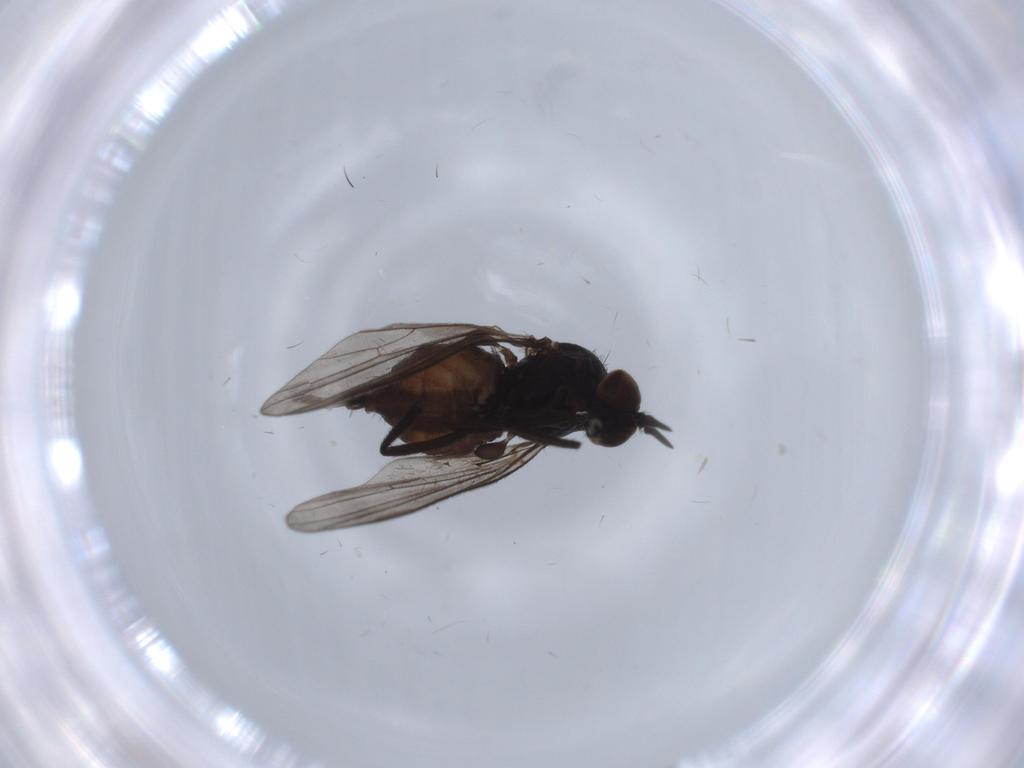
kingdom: Animalia
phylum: Arthropoda
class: Insecta
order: Diptera
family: Dolichopodidae
